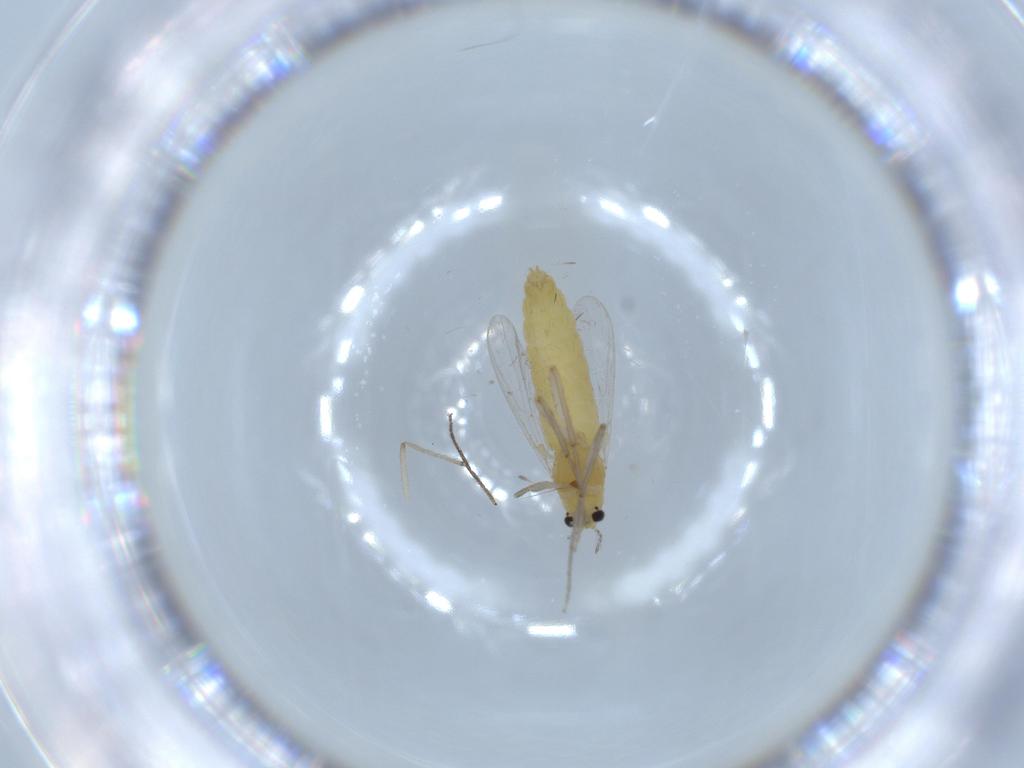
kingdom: Animalia
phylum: Arthropoda
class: Insecta
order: Diptera
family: Chironomidae
